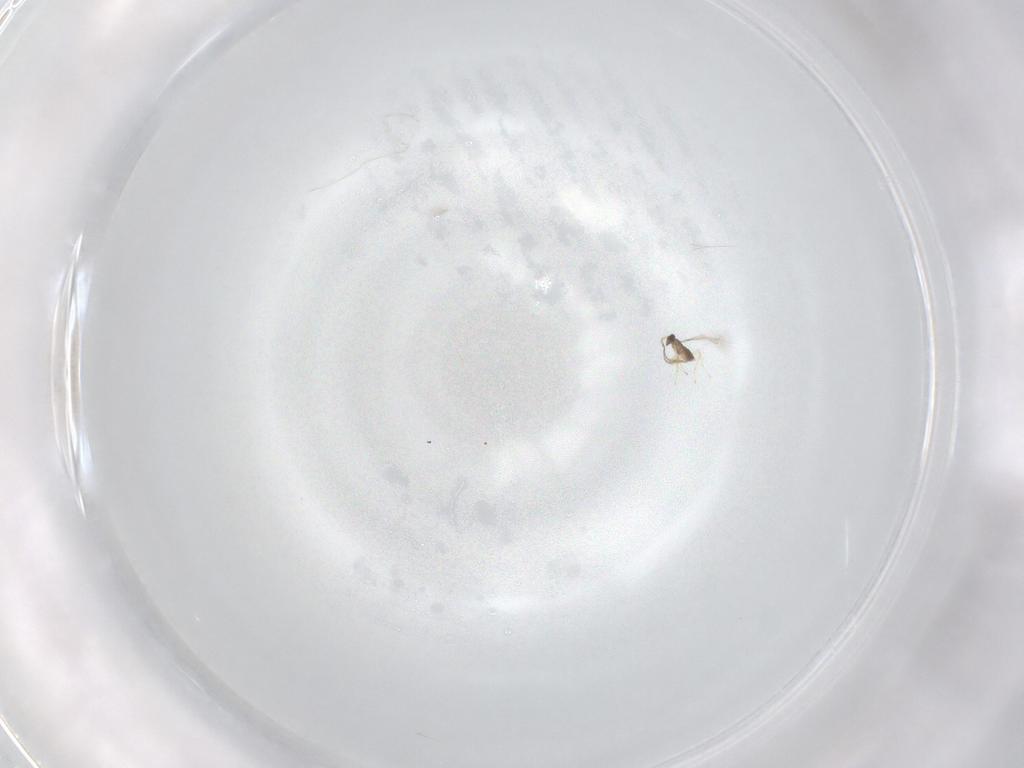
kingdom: Animalia
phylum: Arthropoda
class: Insecta
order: Hymenoptera
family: Mymaridae
